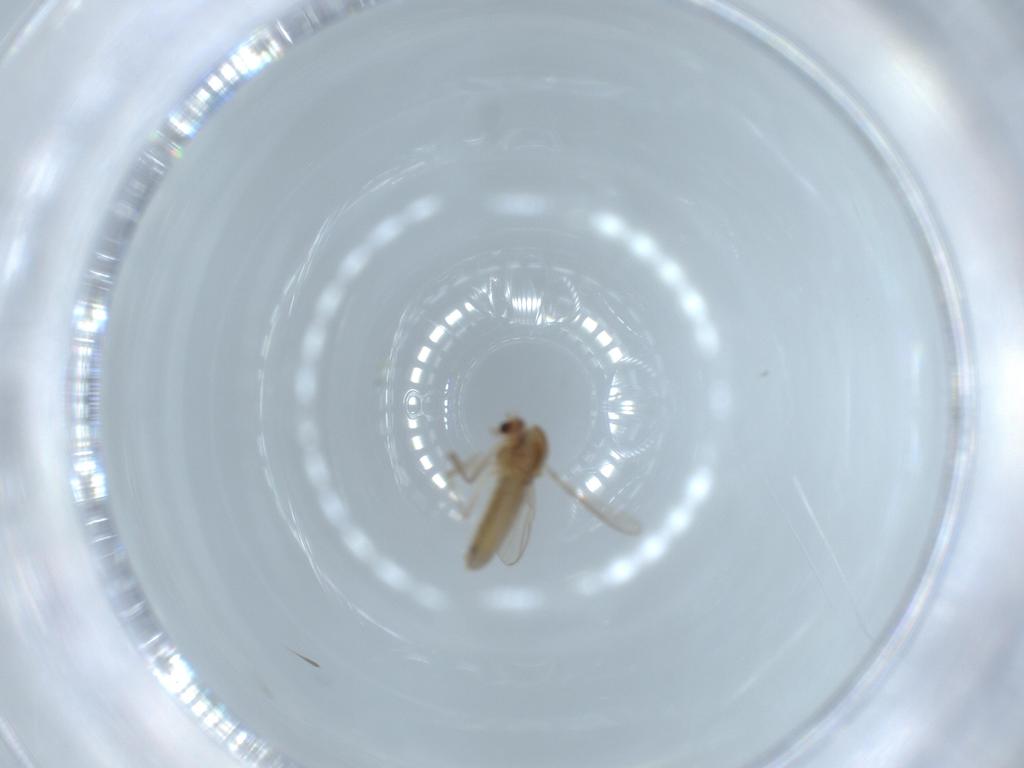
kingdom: Animalia
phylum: Arthropoda
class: Insecta
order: Diptera
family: Chironomidae
